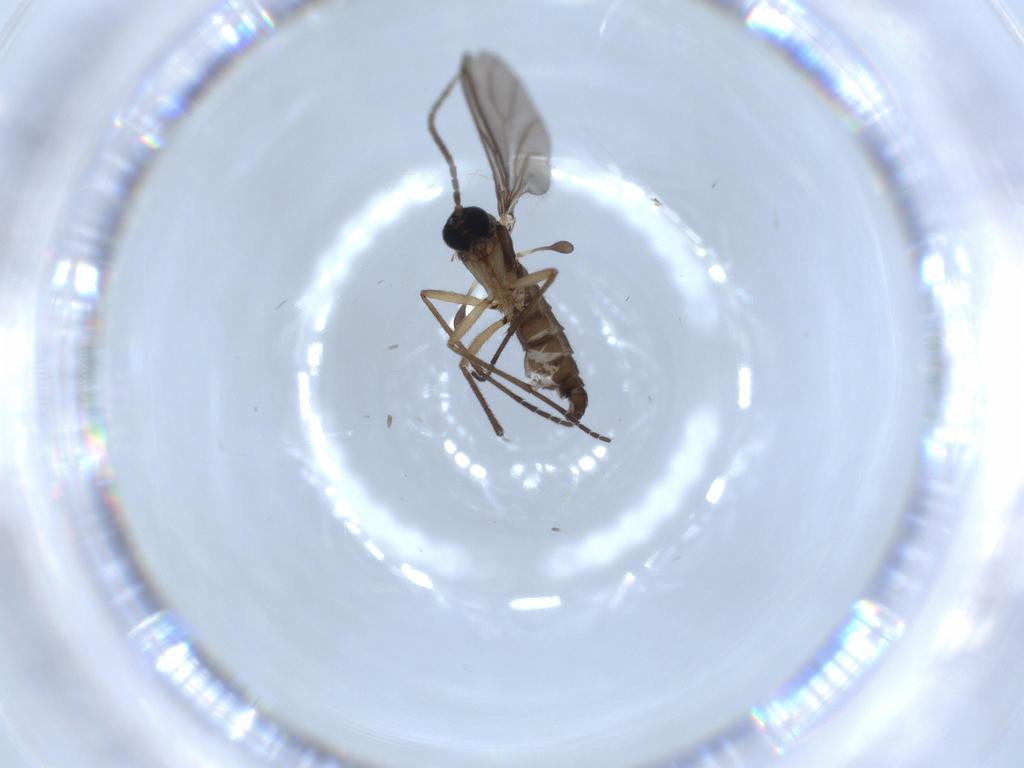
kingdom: Animalia
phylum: Arthropoda
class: Insecta
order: Diptera
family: Sciaridae
